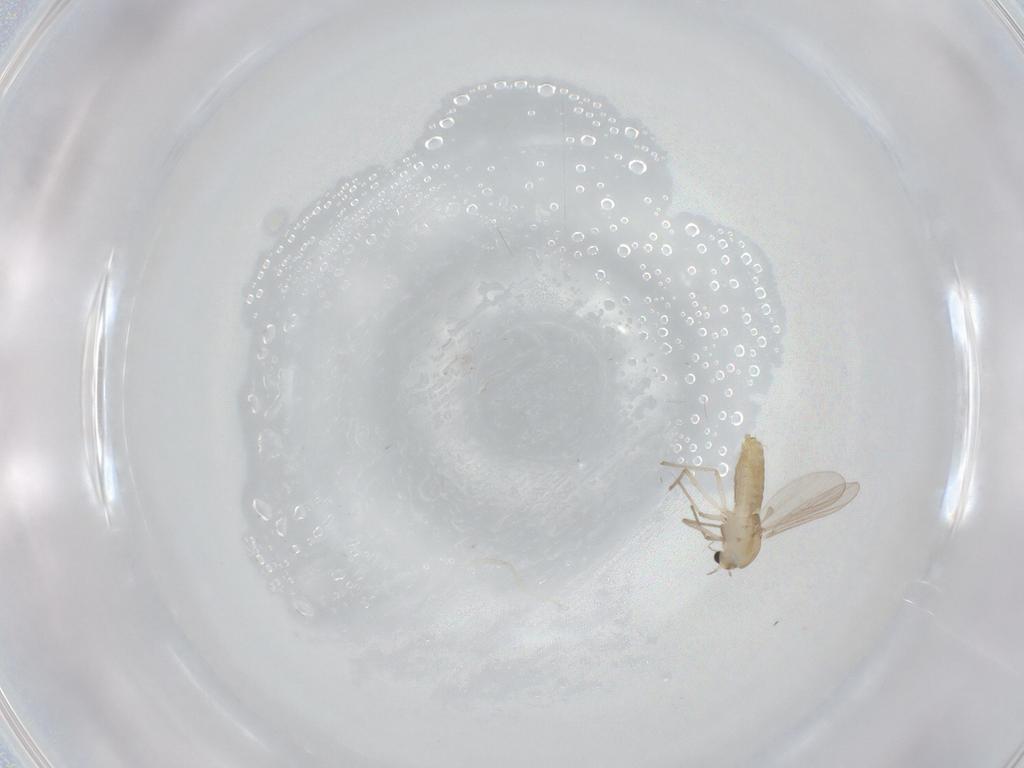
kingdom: Animalia
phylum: Arthropoda
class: Insecta
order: Diptera
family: Chironomidae
